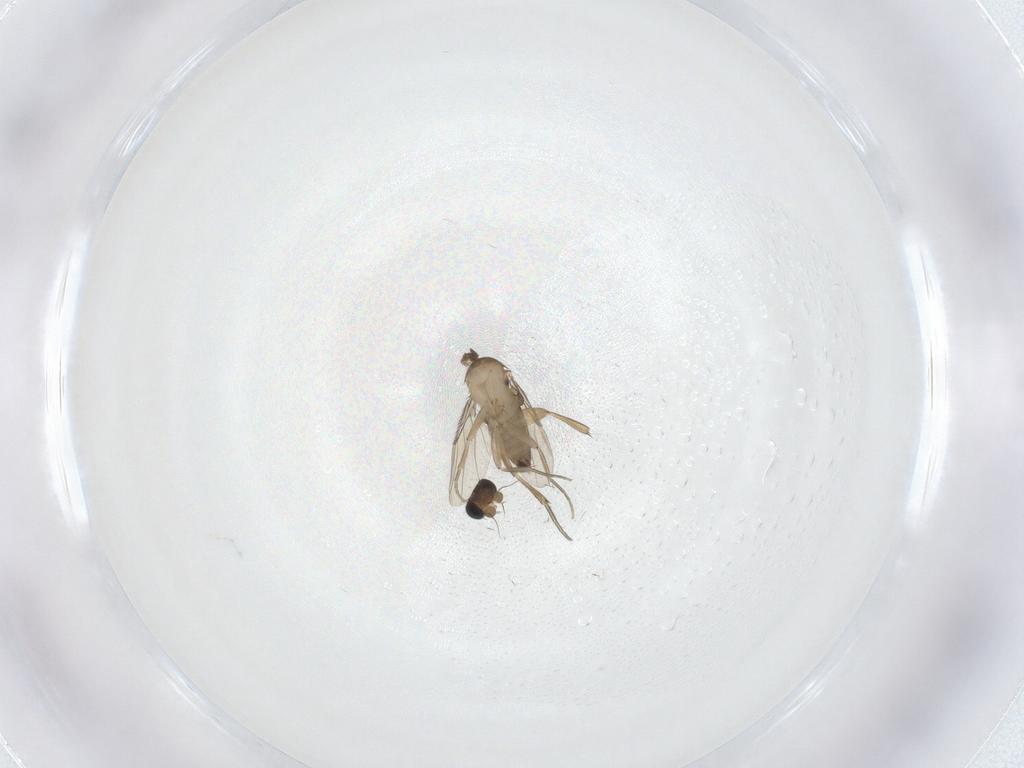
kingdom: Animalia
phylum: Arthropoda
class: Insecta
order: Diptera
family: Phoridae
